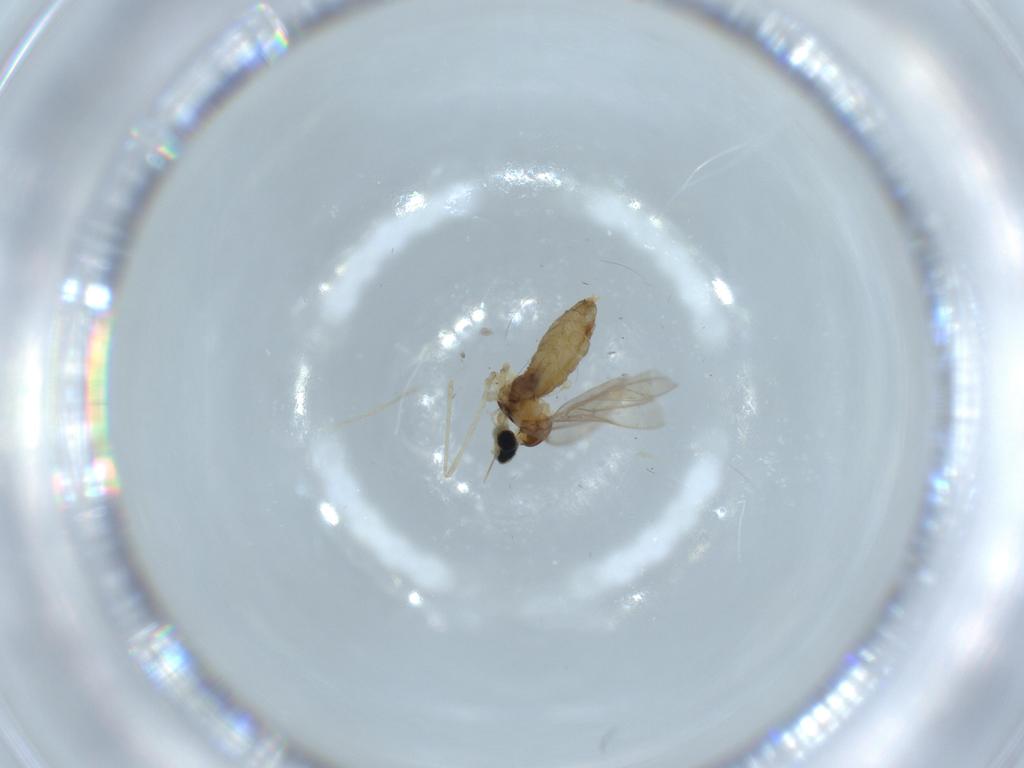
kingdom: Animalia
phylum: Arthropoda
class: Insecta
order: Diptera
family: Cecidomyiidae
